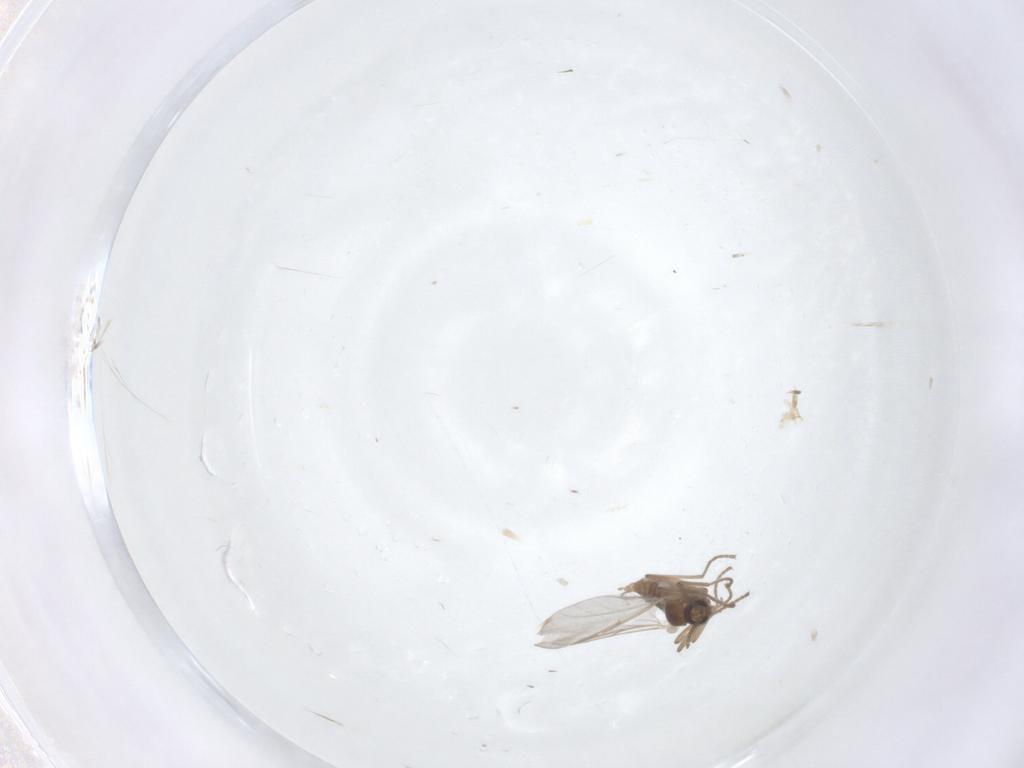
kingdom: Animalia
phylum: Arthropoda
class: Insecta
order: Diptera
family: Cecidomyiidae
